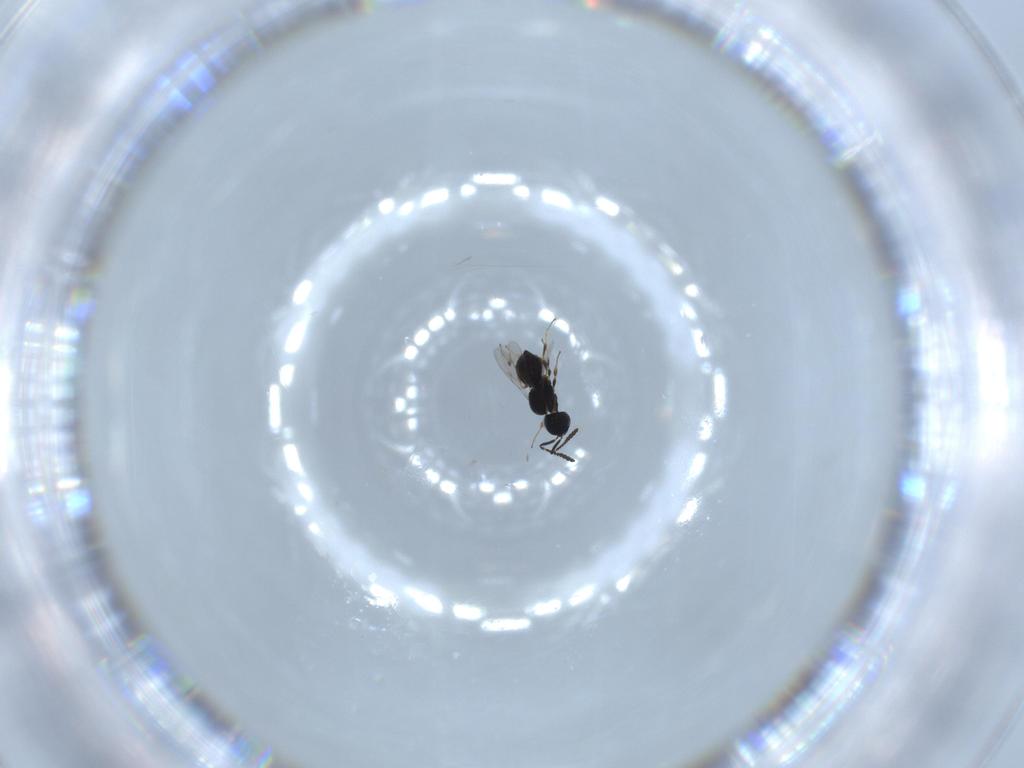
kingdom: Animalia
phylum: Arthropoda
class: Insecta
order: Hymenoptera
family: Scelionidae
